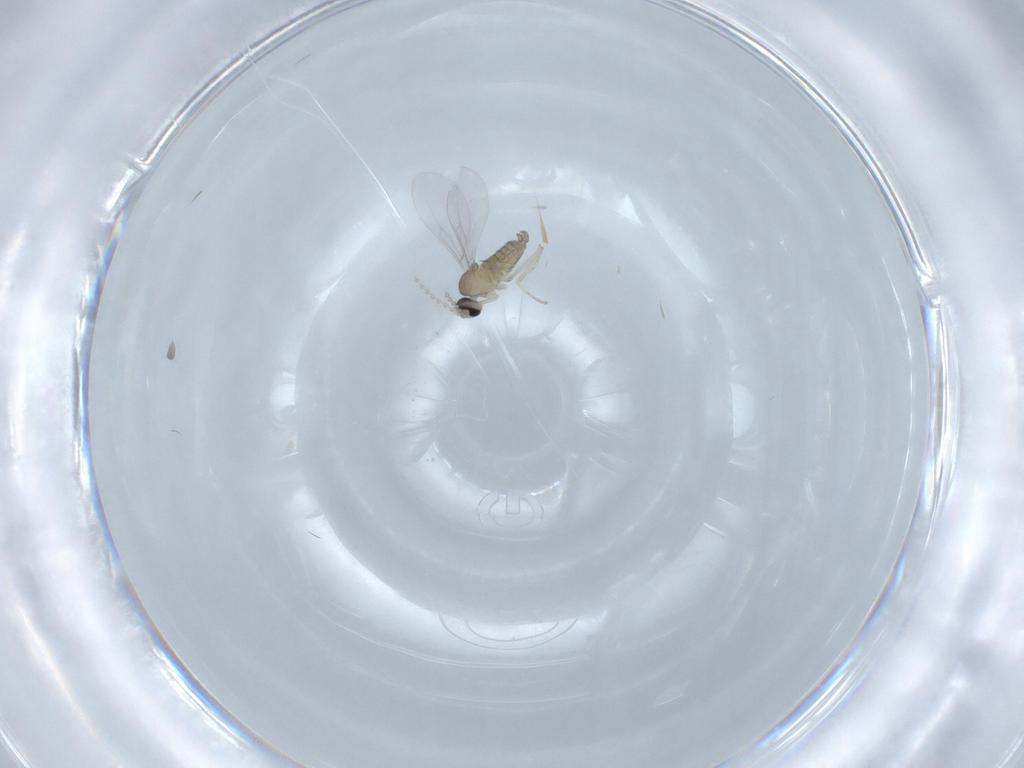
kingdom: Animalia
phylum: Arthropoda
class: Insecta
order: Diptera
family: Cecidomyiidae
